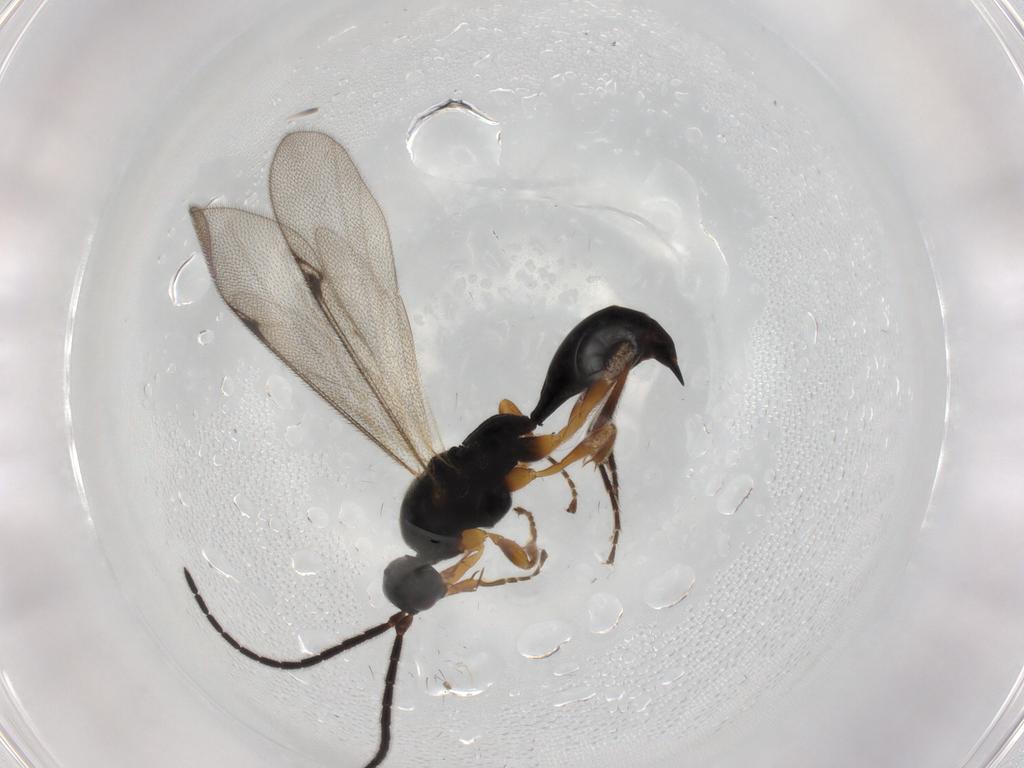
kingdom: Animalia
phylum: Arthropoda
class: Insecta
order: Hymenoptera
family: Proctotrupidae
